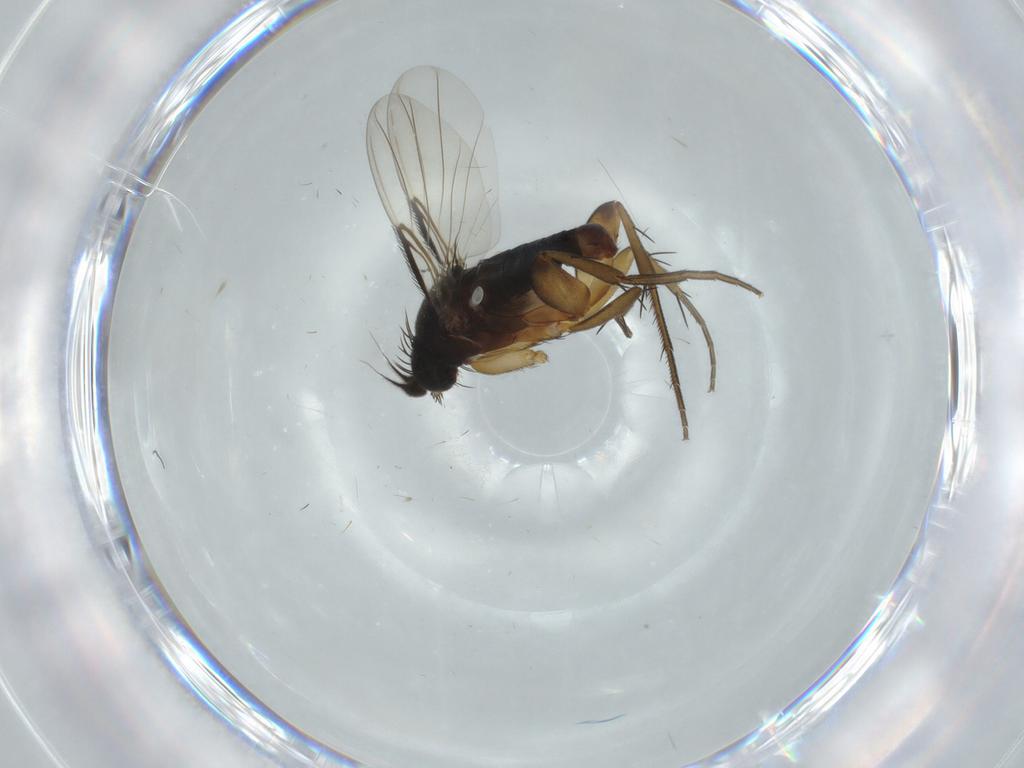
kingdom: Animalia
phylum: Arthropoda
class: Insecta
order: Diptera
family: Phoridae
